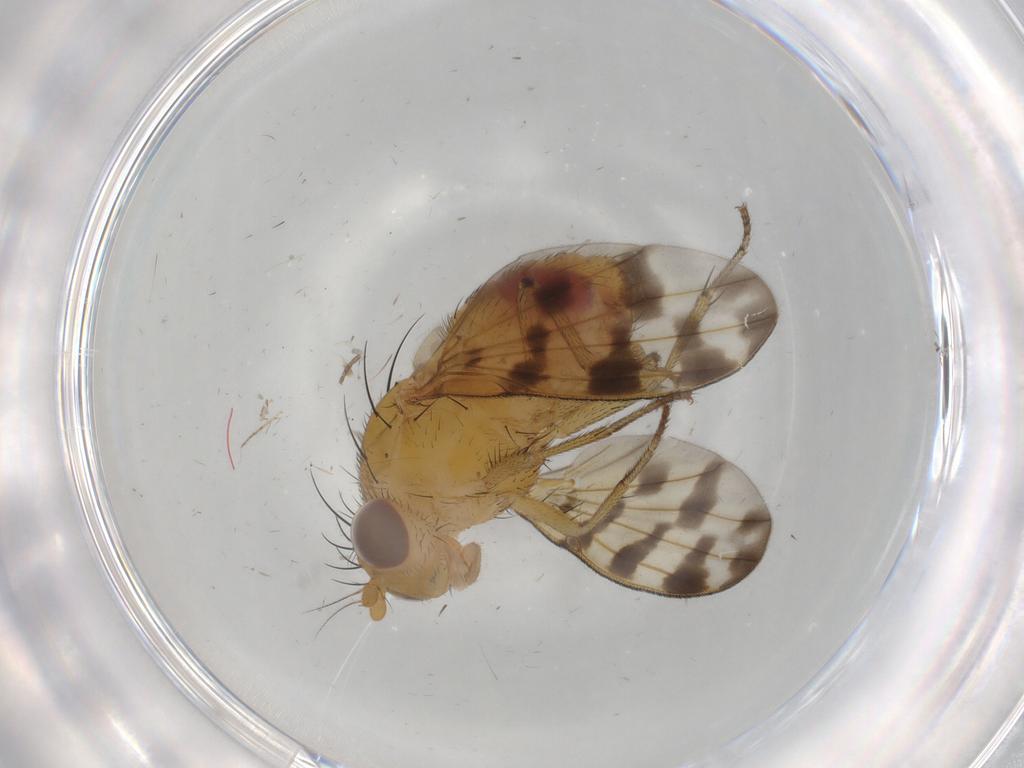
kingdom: Animalia
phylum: Arthropoda
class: Insecta
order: Diptera
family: Ceratopogonidae
